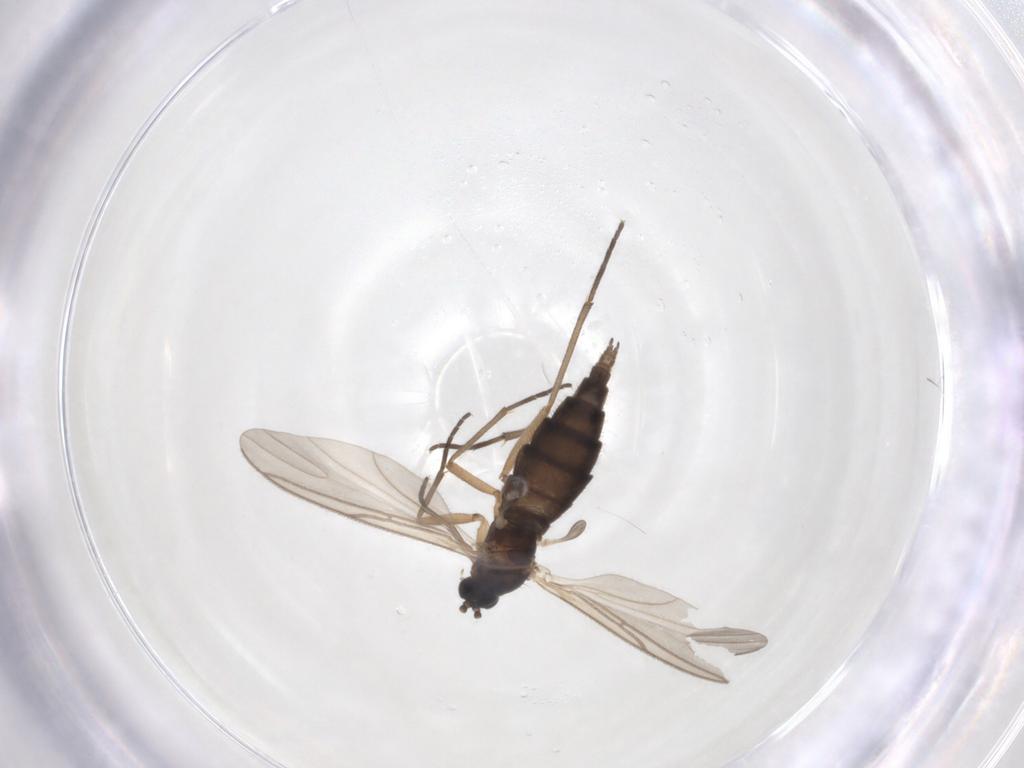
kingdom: Animalia
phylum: Arthropoda
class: Insecta
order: Diptera
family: Sciaridae
